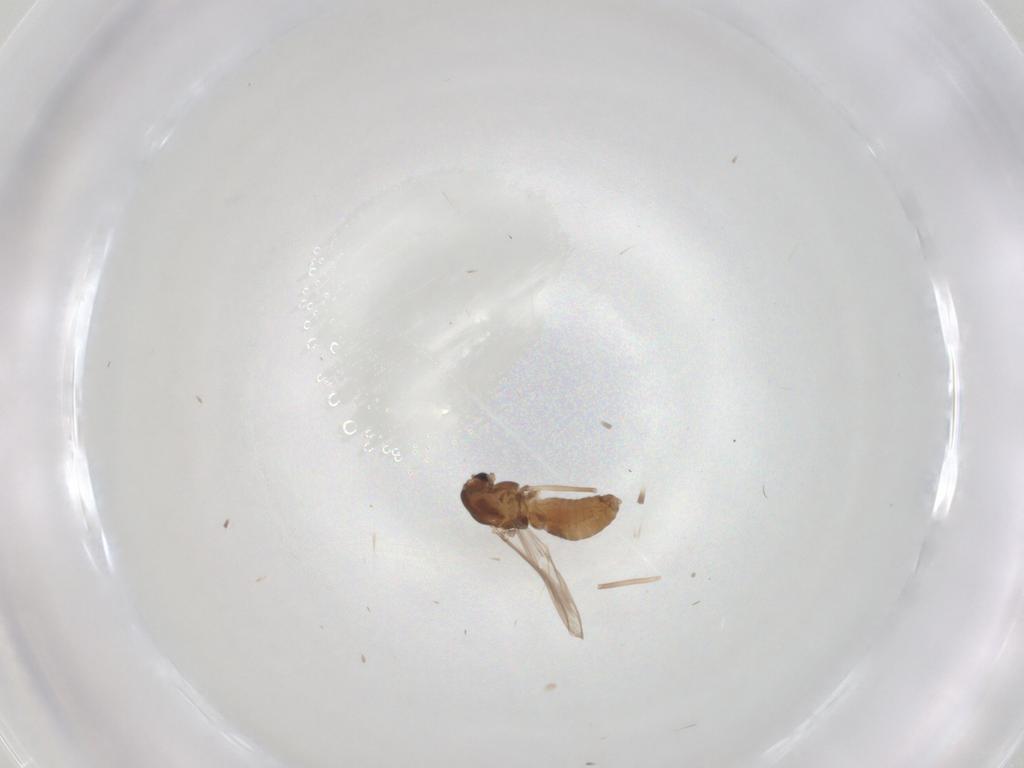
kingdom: Animalia
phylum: Arthropoda
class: Insecta
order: Diptera
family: Chironomidae
